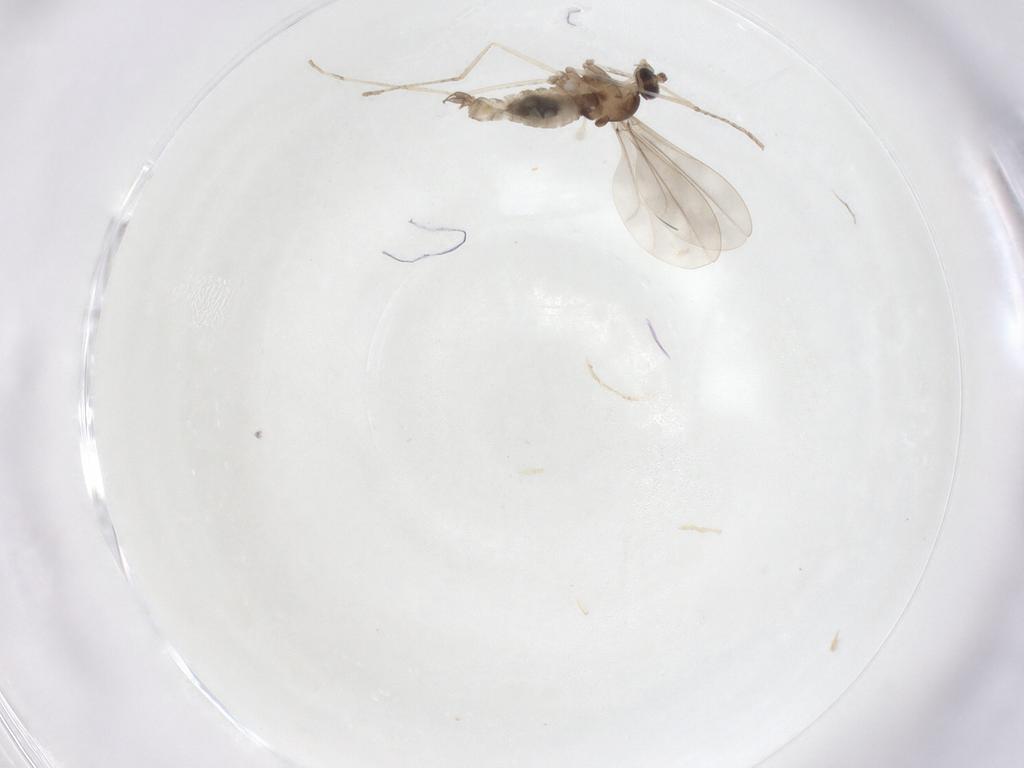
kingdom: Animalia
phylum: Arthropoda
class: Insecta
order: Diptera
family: Cecidomyiidae
